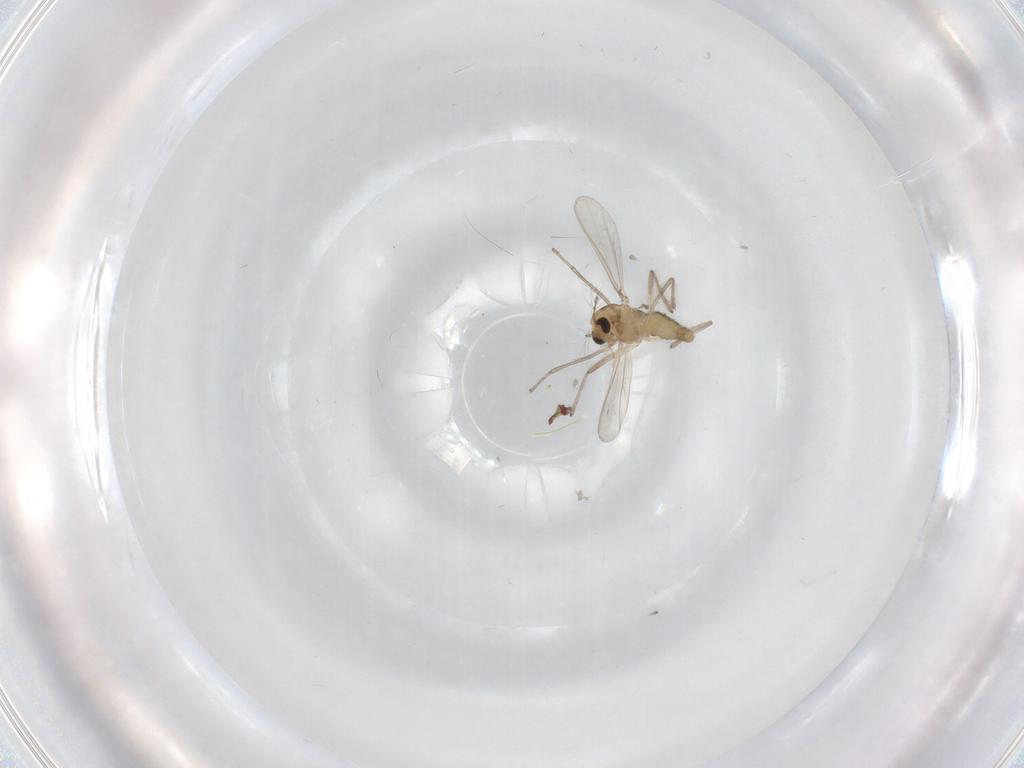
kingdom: Animalia
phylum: Arthropoda
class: Insecta
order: Diptera
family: Chironomidae
